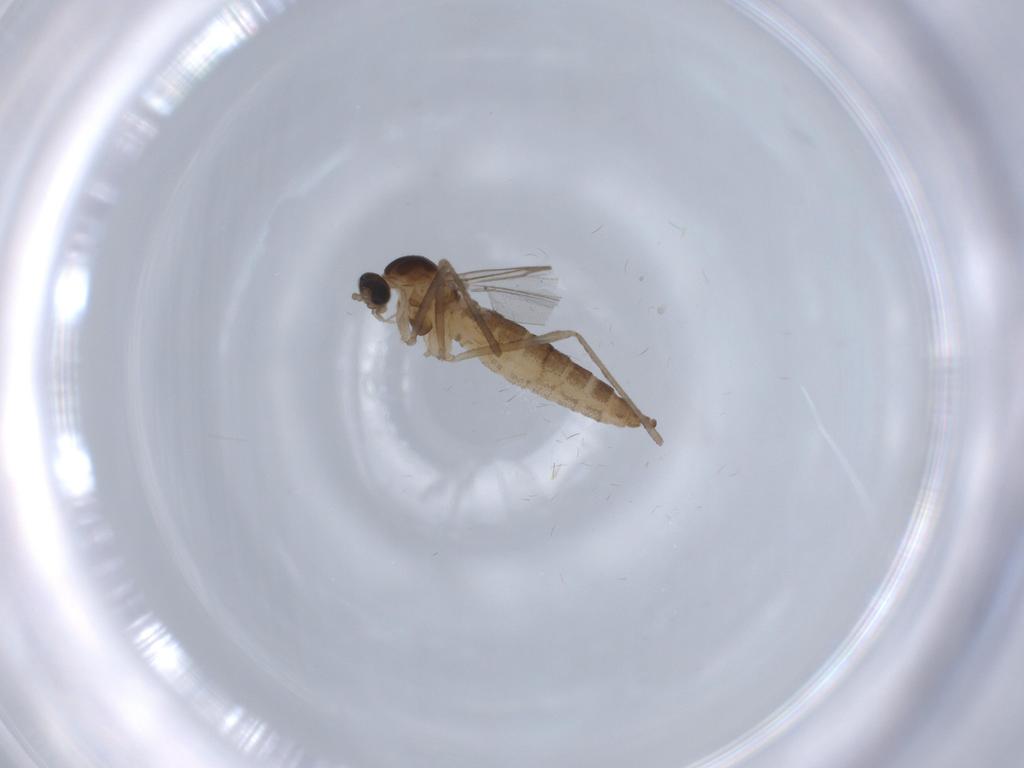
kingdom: Animalia
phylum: Arthropoda
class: Insecta
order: Diptera
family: Cecidomyiidae
